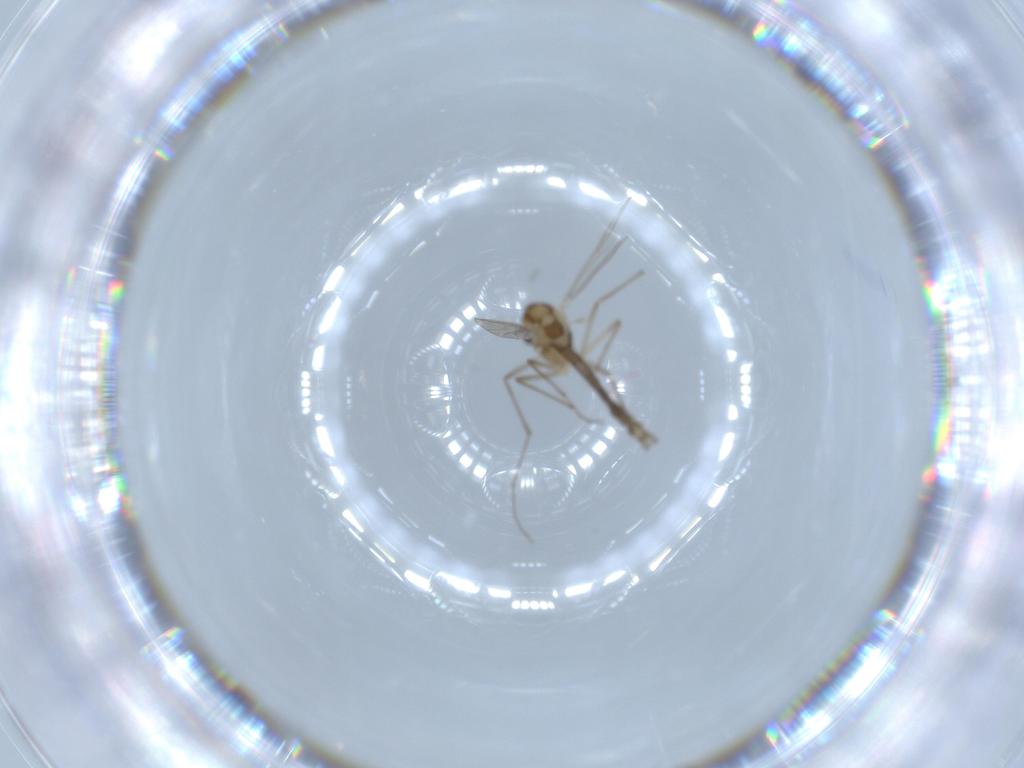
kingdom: Animalia
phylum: Arthropoda
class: Insecta
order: Diptera
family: Chironomidae
